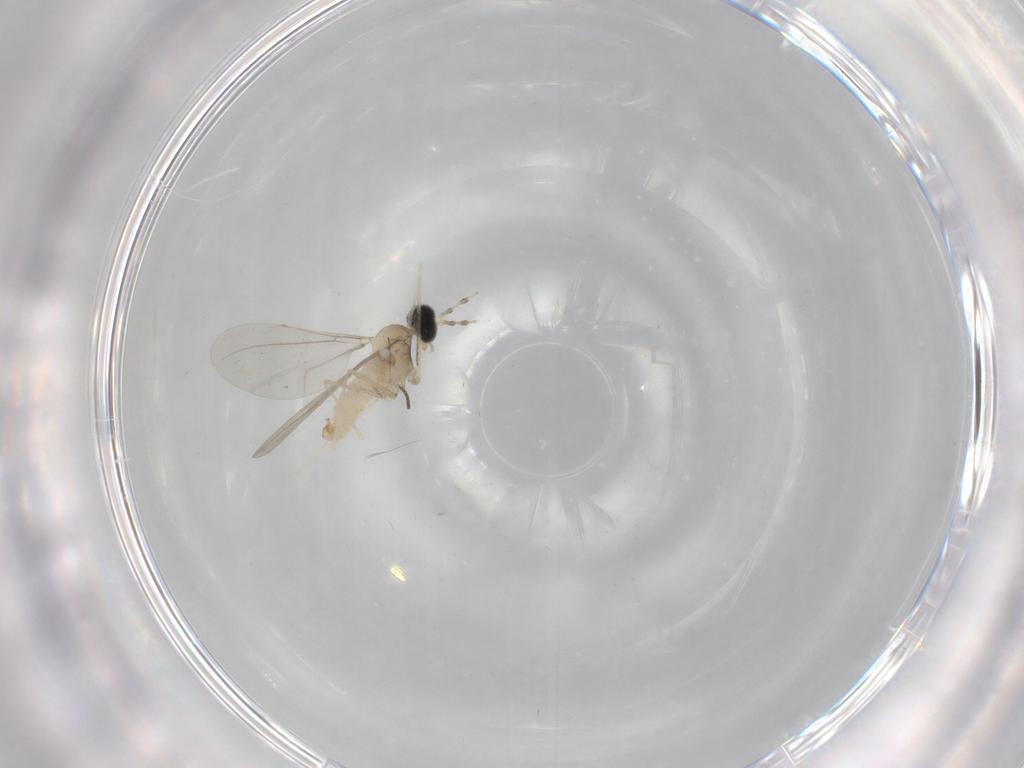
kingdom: Animalia
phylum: Arthropoda
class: Insecta
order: Diptera
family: Cecidomyiidae
